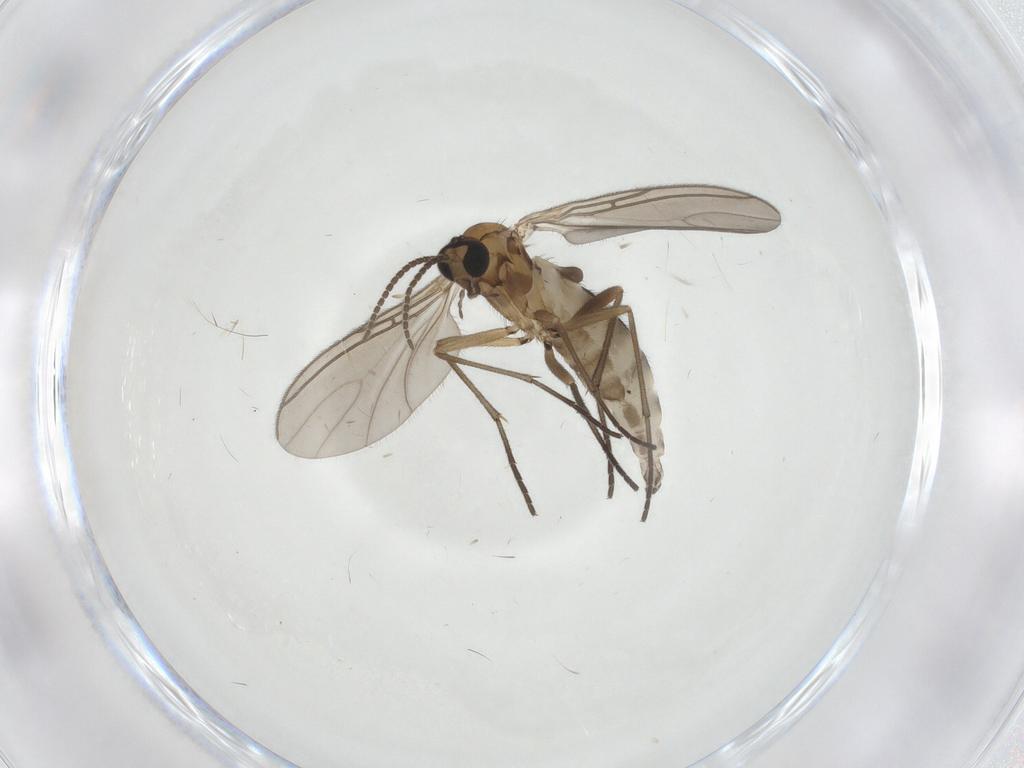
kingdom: Animalia
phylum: Arthropoda
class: Insecta
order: Diptera
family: Sciaridae
